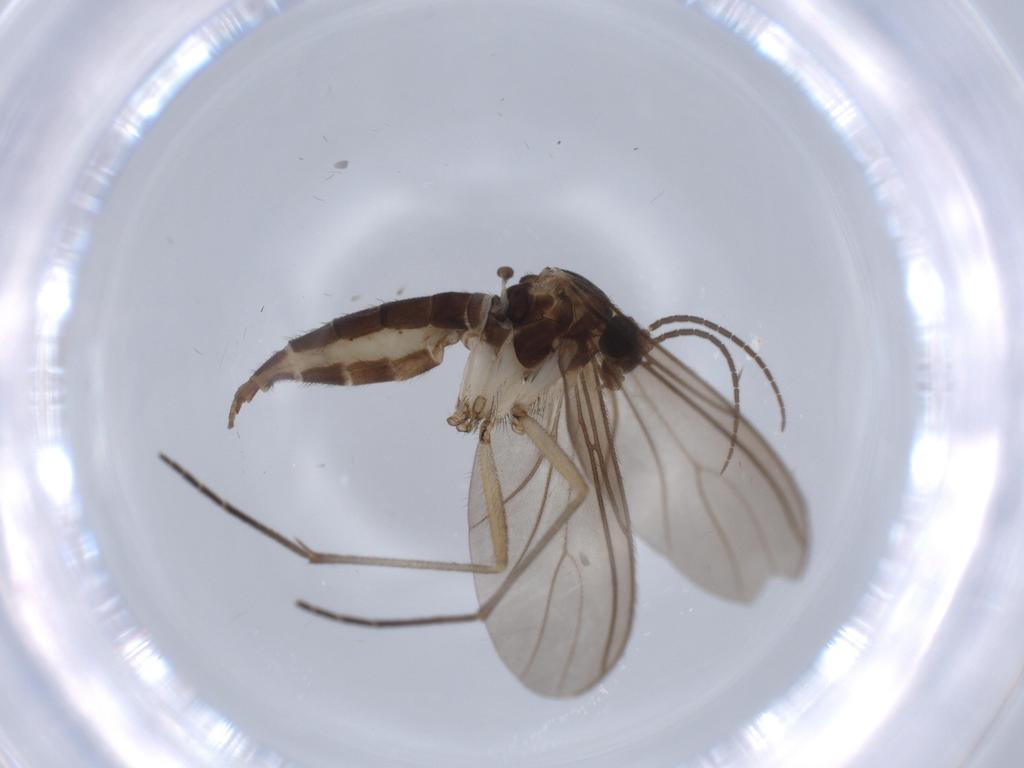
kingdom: Animalia
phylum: Arthropoda
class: Insecta
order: Diptera
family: Sciaridae
